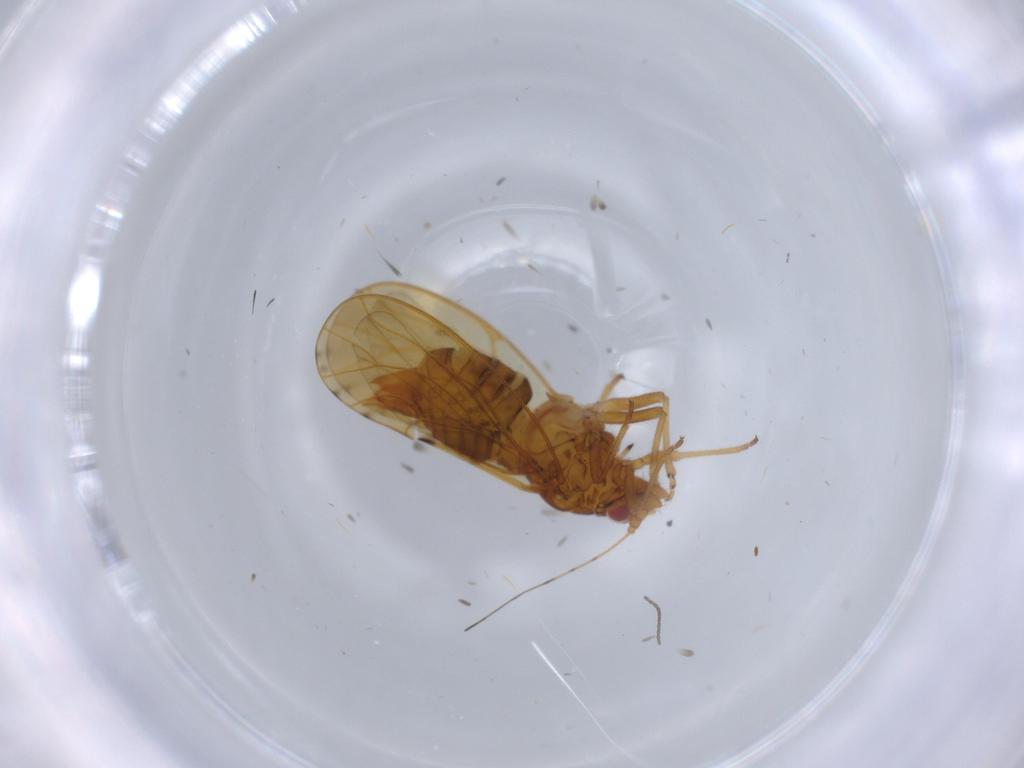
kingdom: Animalia
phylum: Arthropoda
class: Insecta
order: Hemiptera
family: Psylloidea_incertae_sedis
